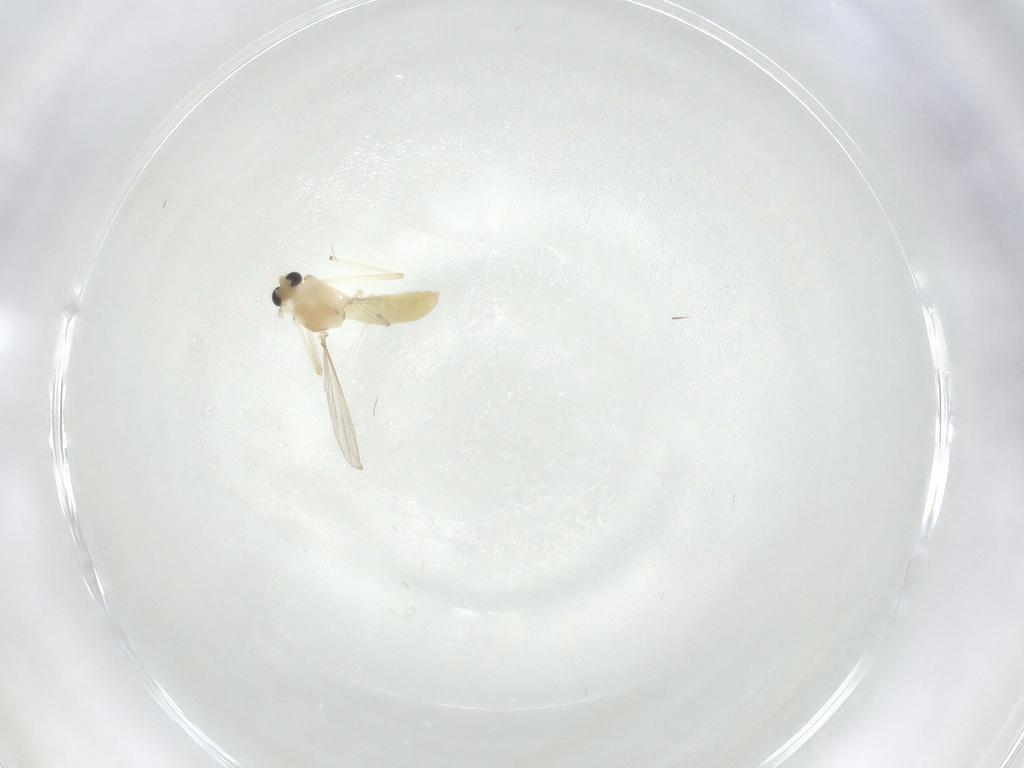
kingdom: Animalia
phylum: Arthropoda
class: Insecta
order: Diptera
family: Chironomidae
